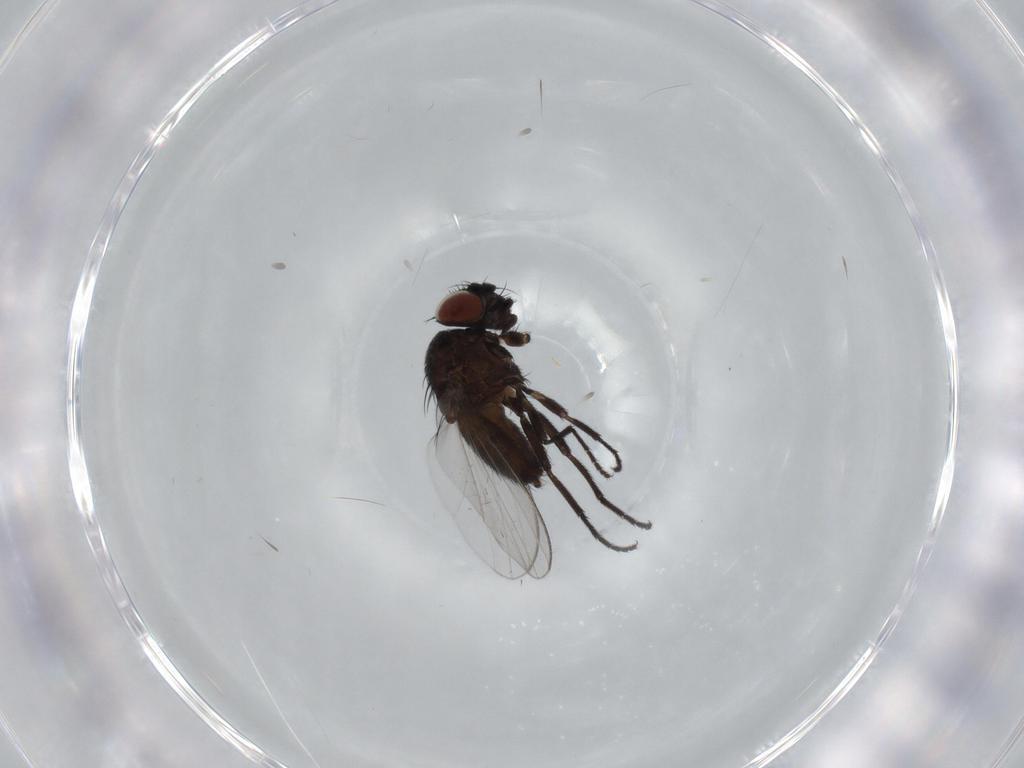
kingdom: Animalia
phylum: Arthropoda
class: Insecta
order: Diptera
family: Milichiidae
